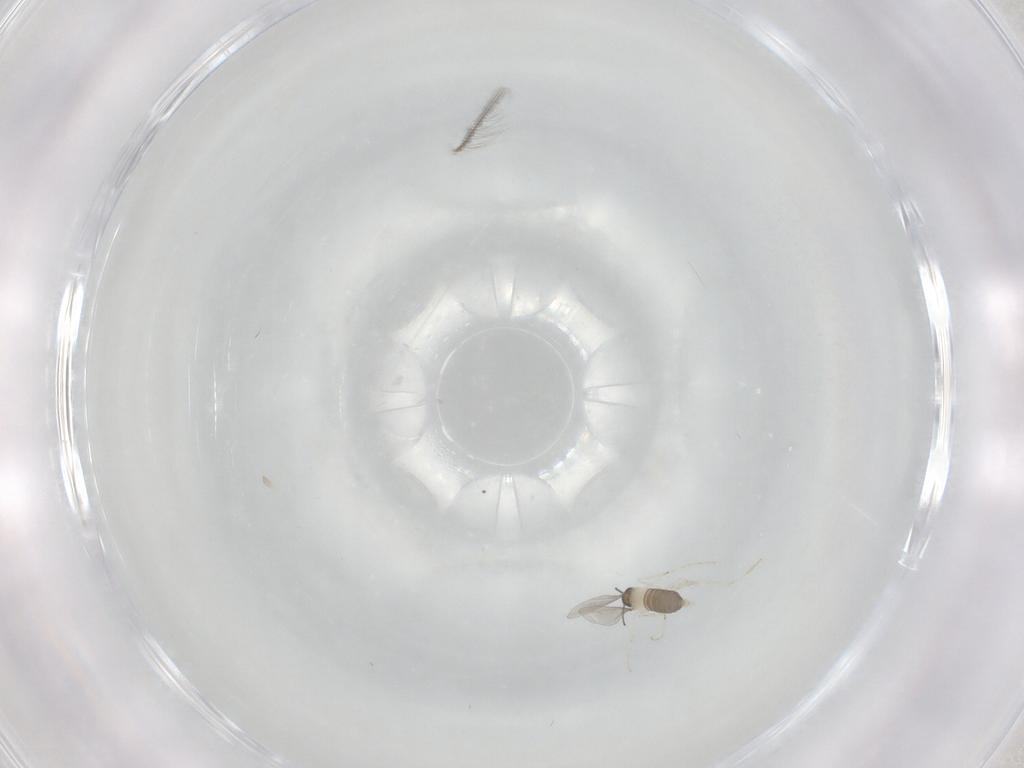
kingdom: Animalia
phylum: Arthropoda
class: Insecta
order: Diptera
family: Cecidomyiidae
